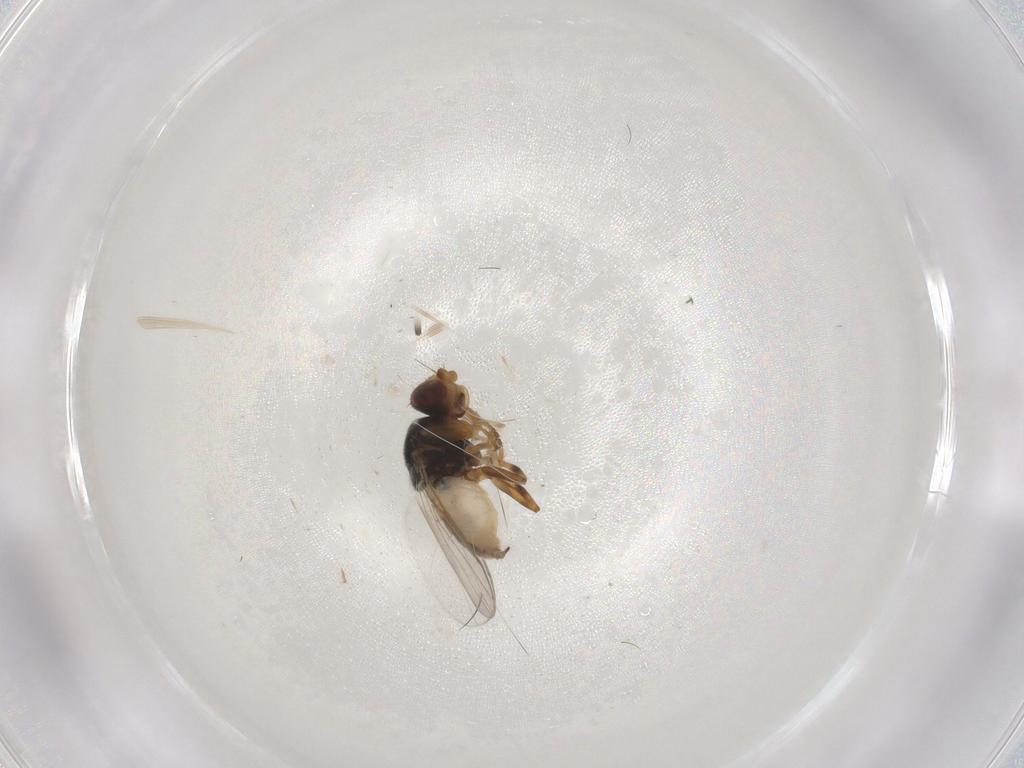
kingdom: Animalia
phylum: Arthropoda
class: Insecta
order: Diptera
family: Chloropidae
